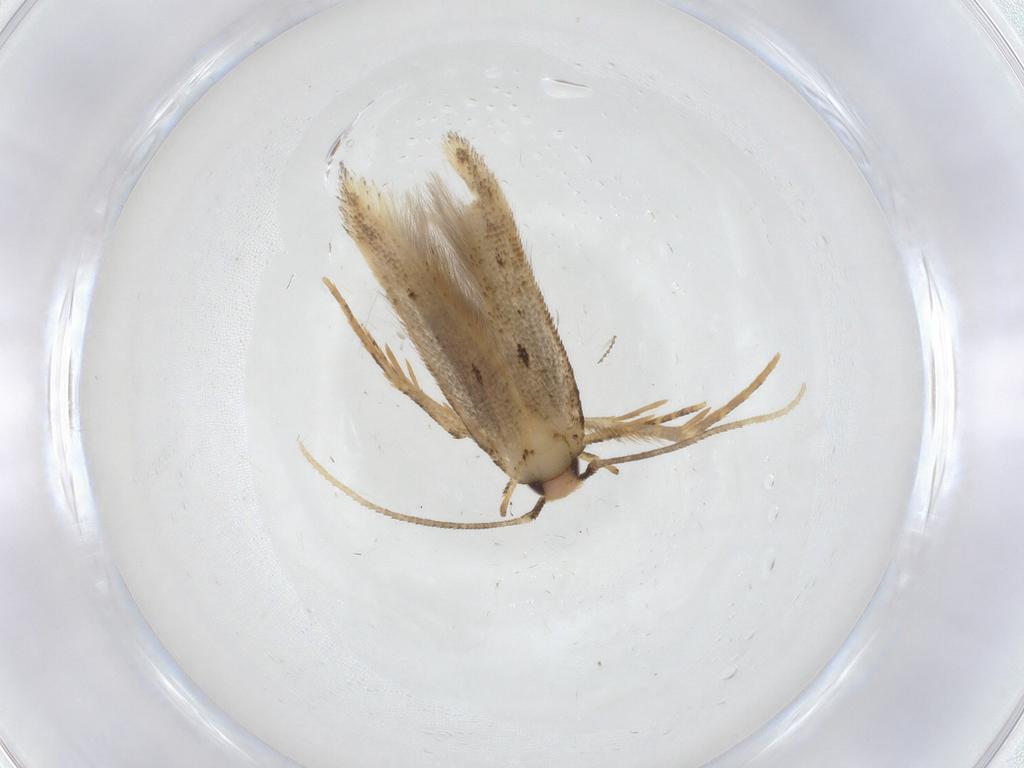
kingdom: Animalia
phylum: Arthropoda
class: Insecta
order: Lepidoptera
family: Cosmopterigidae
